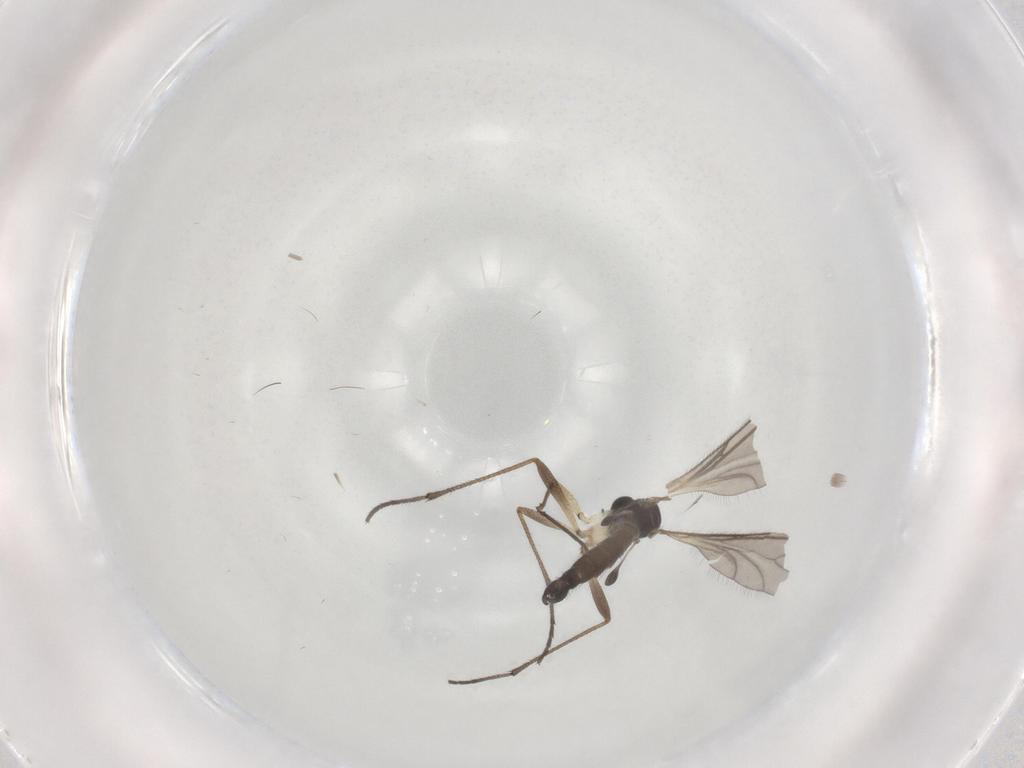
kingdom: Animalia
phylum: Arthropoda
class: Insecta
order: Diptera
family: Sciaridae
